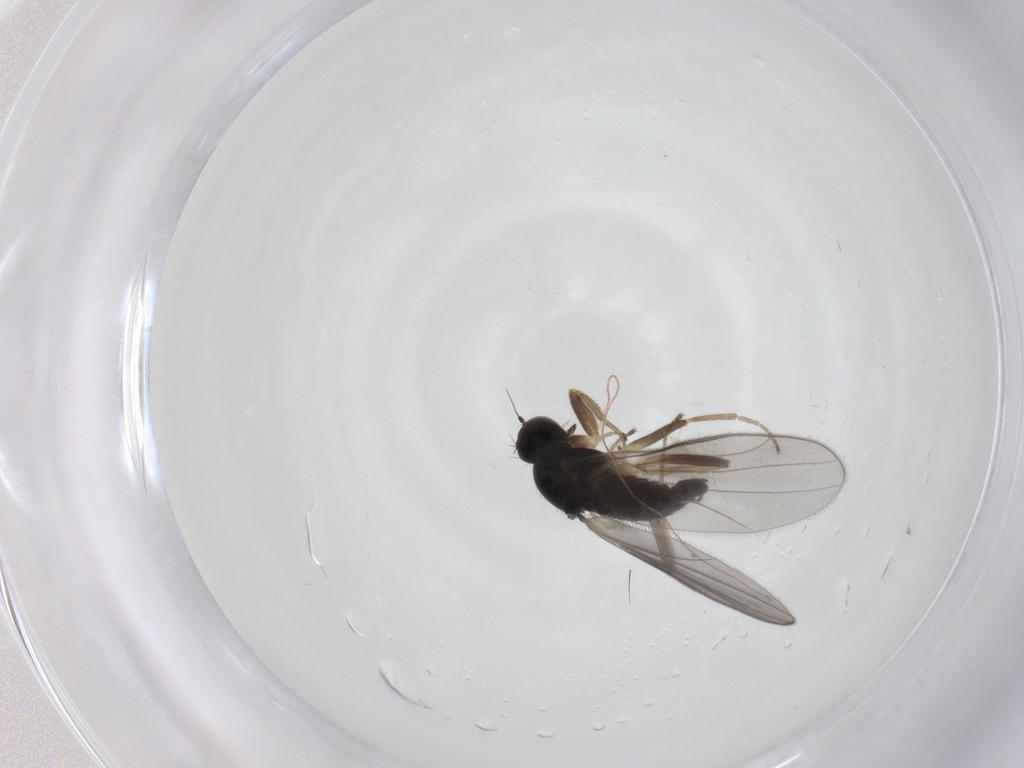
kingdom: Animalia
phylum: Arthropoda
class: Insecta
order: Diptera
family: Hybotidae
